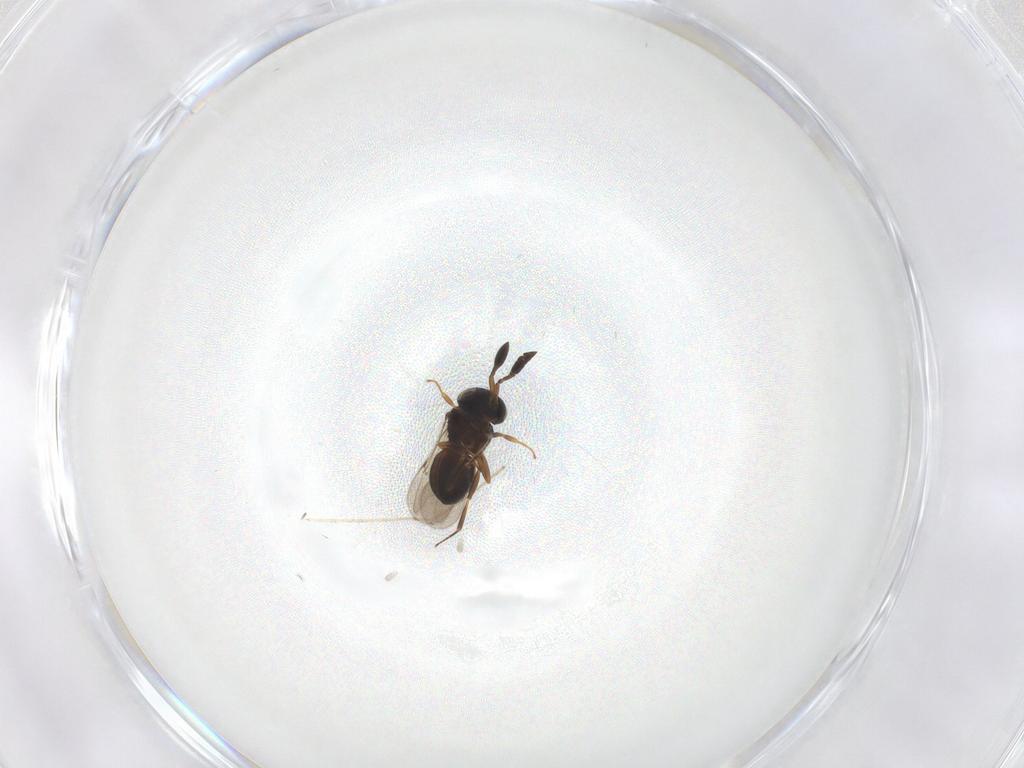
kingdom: Animalia
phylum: Arthropoda
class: Insecta
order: Hymenoptera
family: Scelionidae
